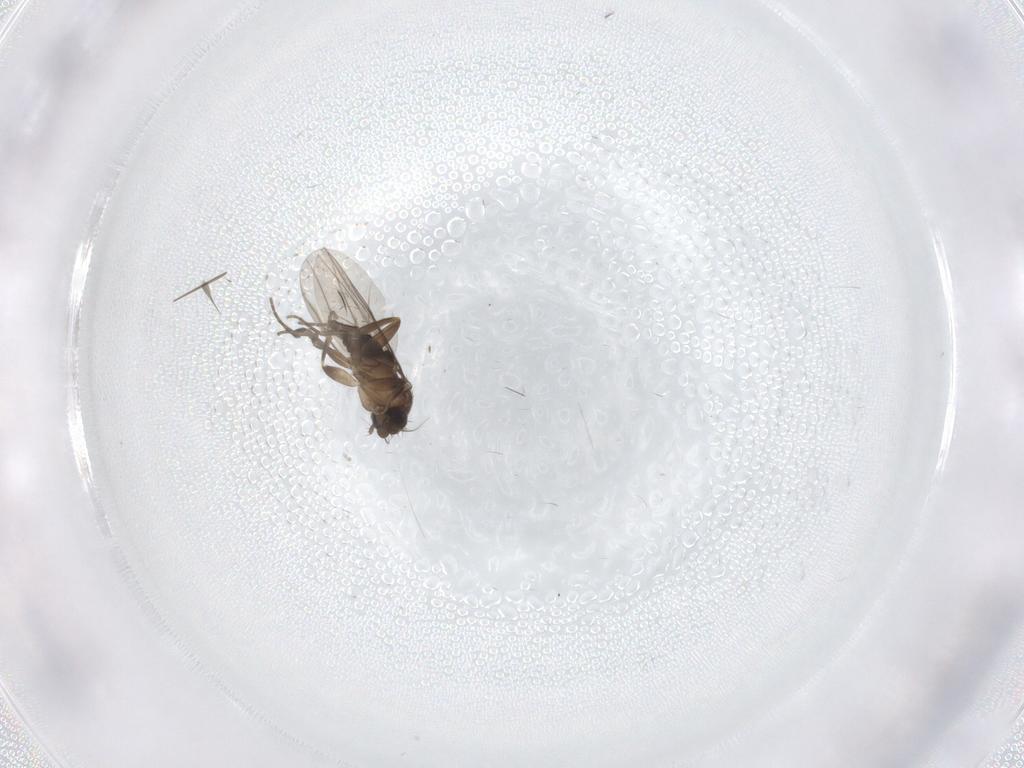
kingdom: Animalia
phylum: Arthropoda
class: Insecta
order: Diptera
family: Phoridae
